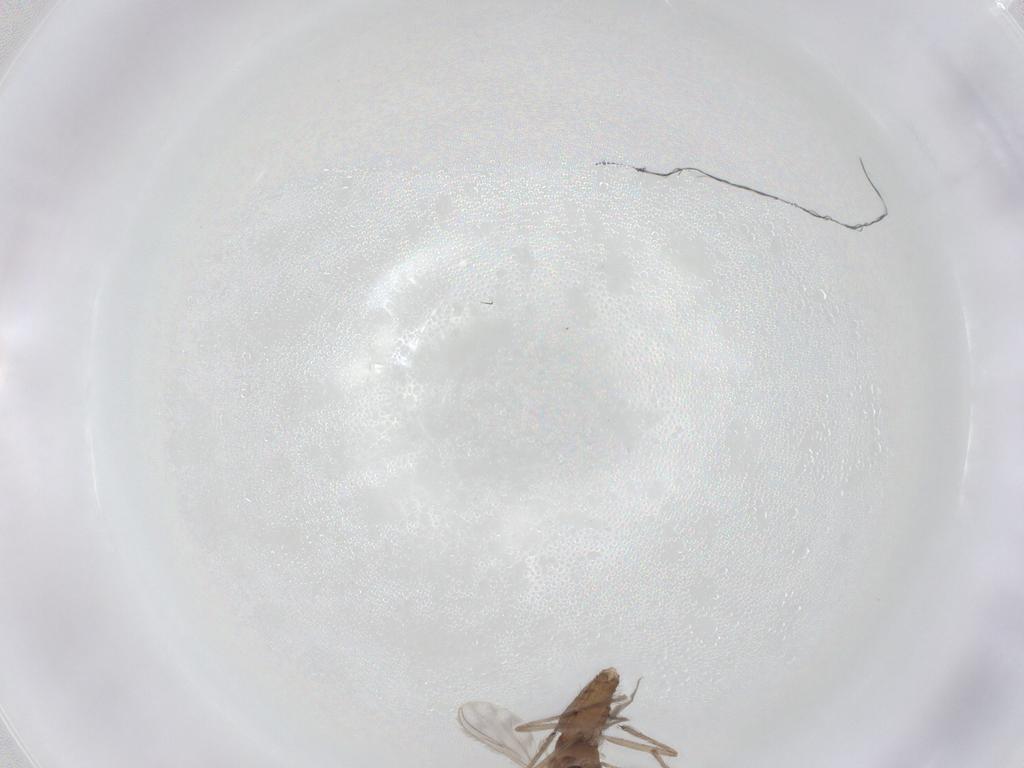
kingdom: Animalia
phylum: Arthropoda
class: Insecta
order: Diptera
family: Chironomidae
